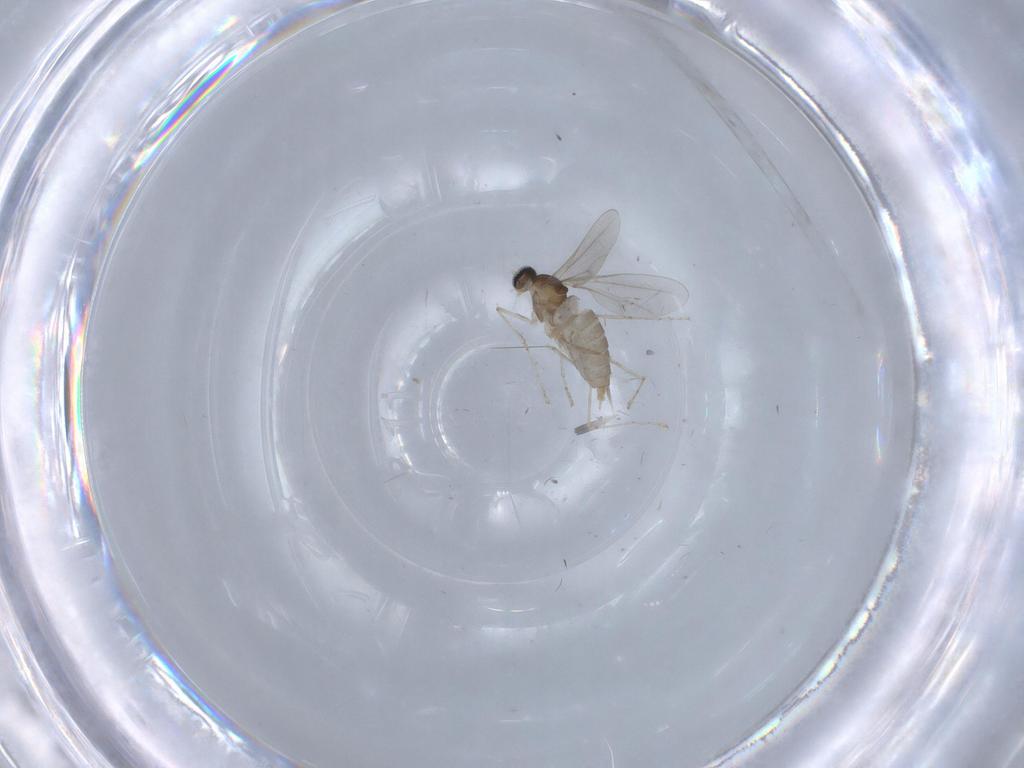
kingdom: Animalia
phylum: Arthropoda
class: Insecta
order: Diptera
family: Cecidomyiidae
